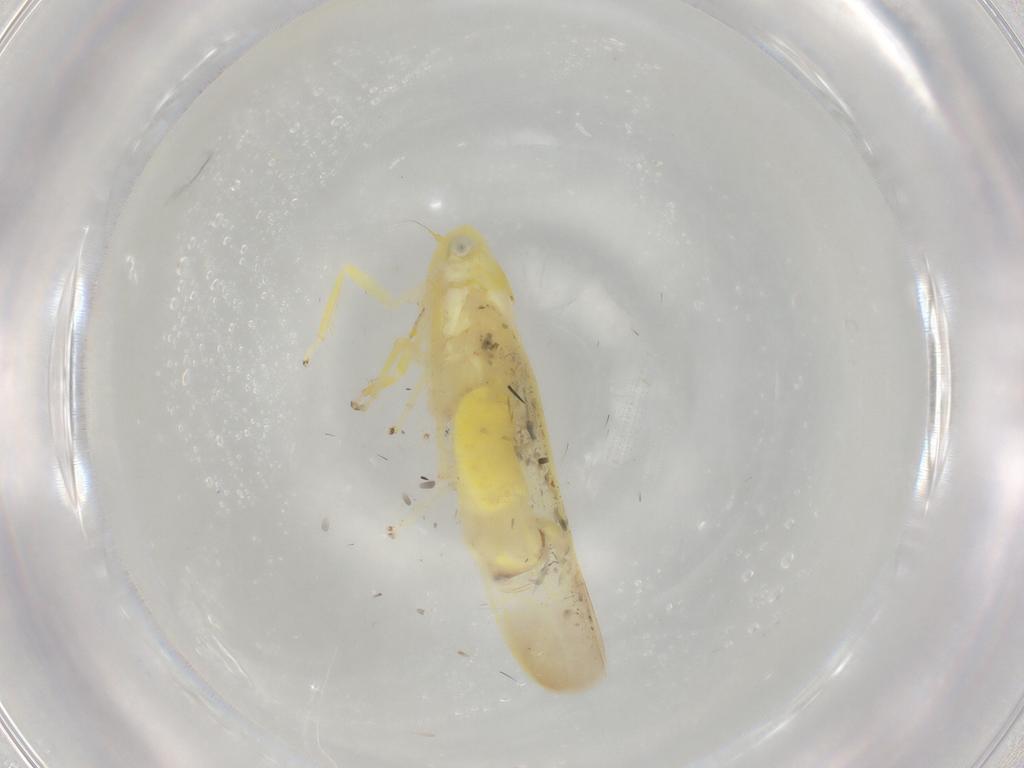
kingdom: Animalia
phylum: Arthropoda
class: Insecta
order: Hemiptera
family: Cicadellidae
